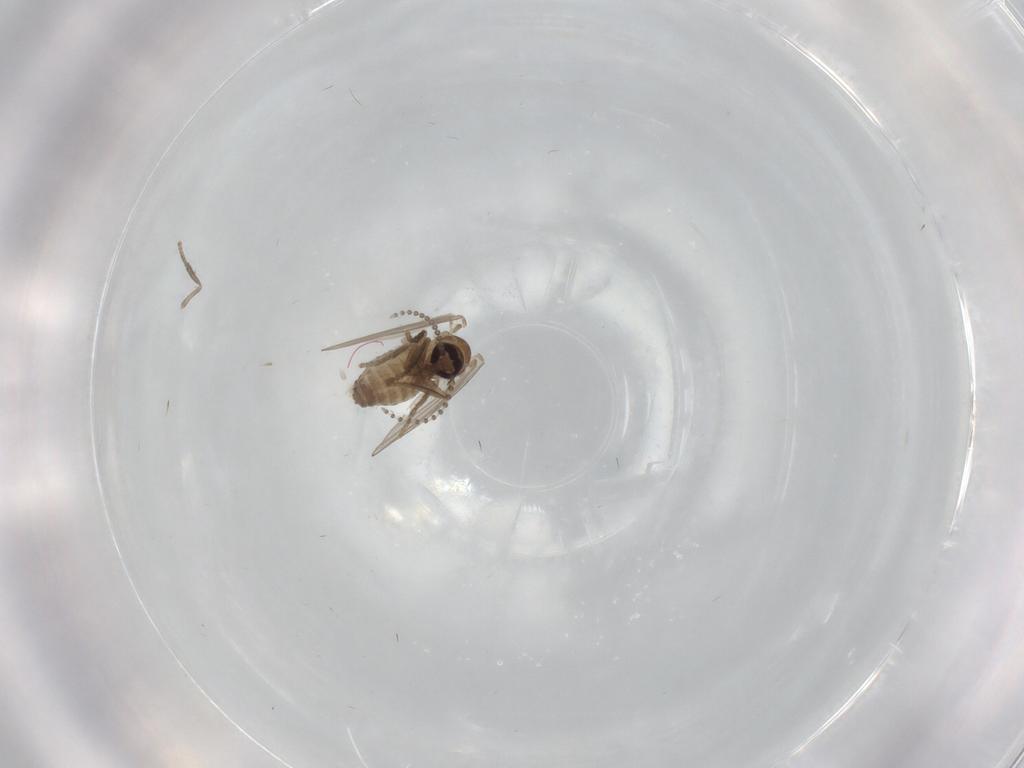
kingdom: Animalia
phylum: Arthropoda
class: Insecta
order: Diptera
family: Psychodidae
